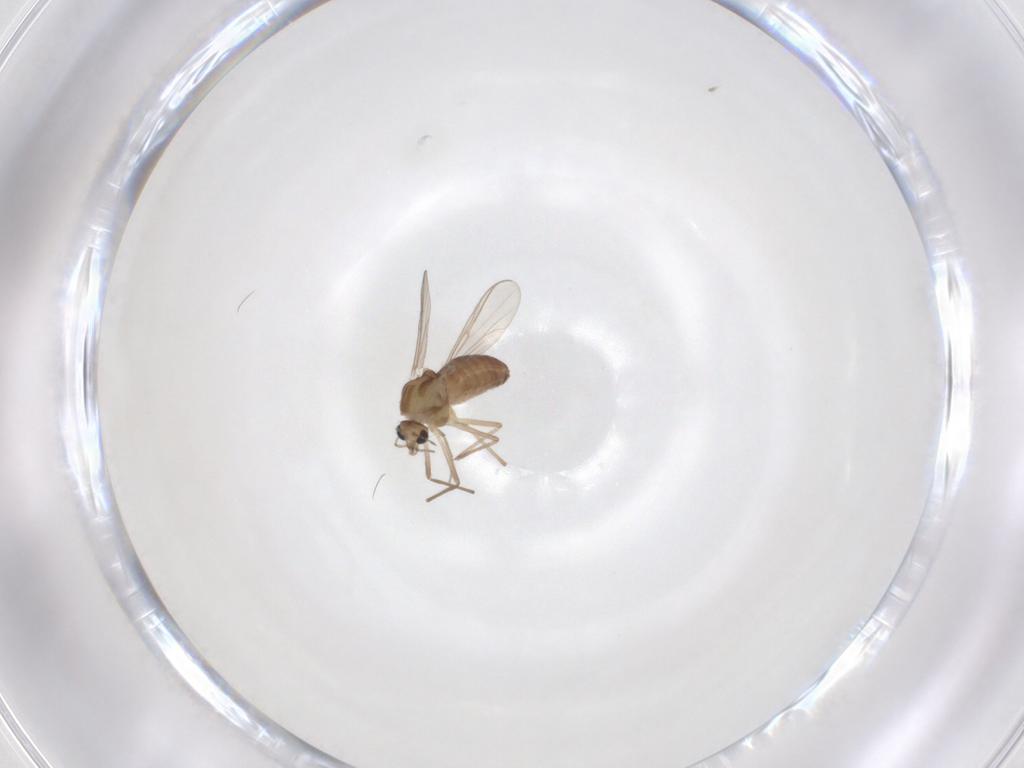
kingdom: Animalia
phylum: Arthropoda
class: Insecta
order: Diptera
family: Chironomidae
